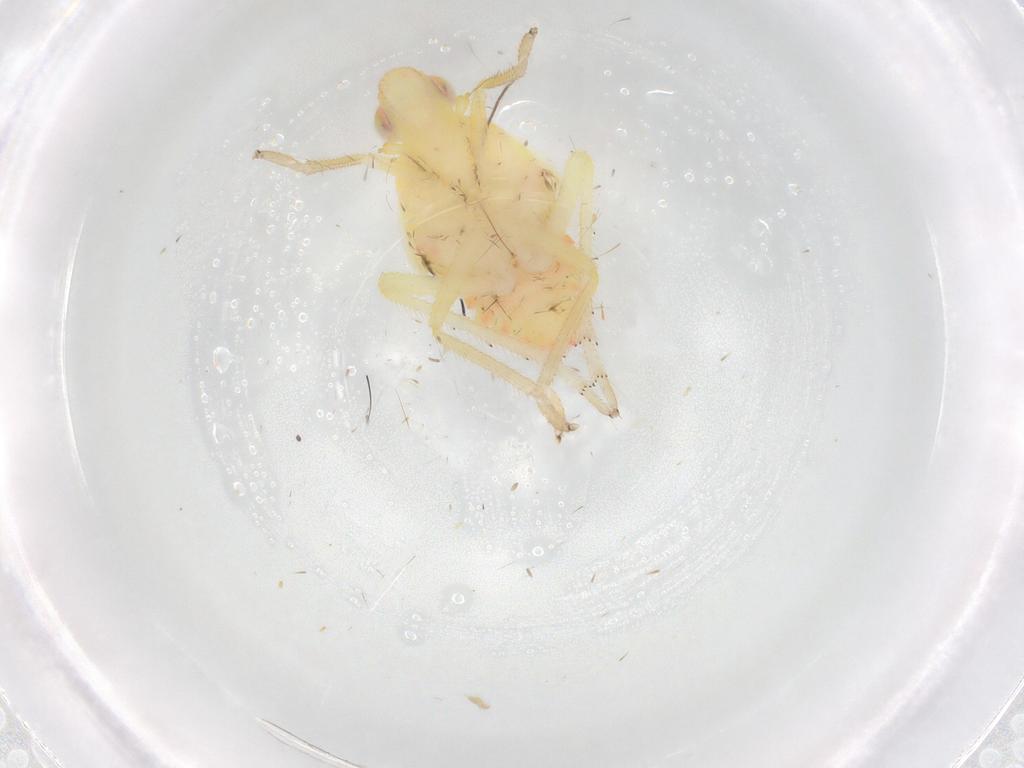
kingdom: Animalia
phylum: Arthropoda
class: Insecta
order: Hemiptera
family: Tropiduchidae
